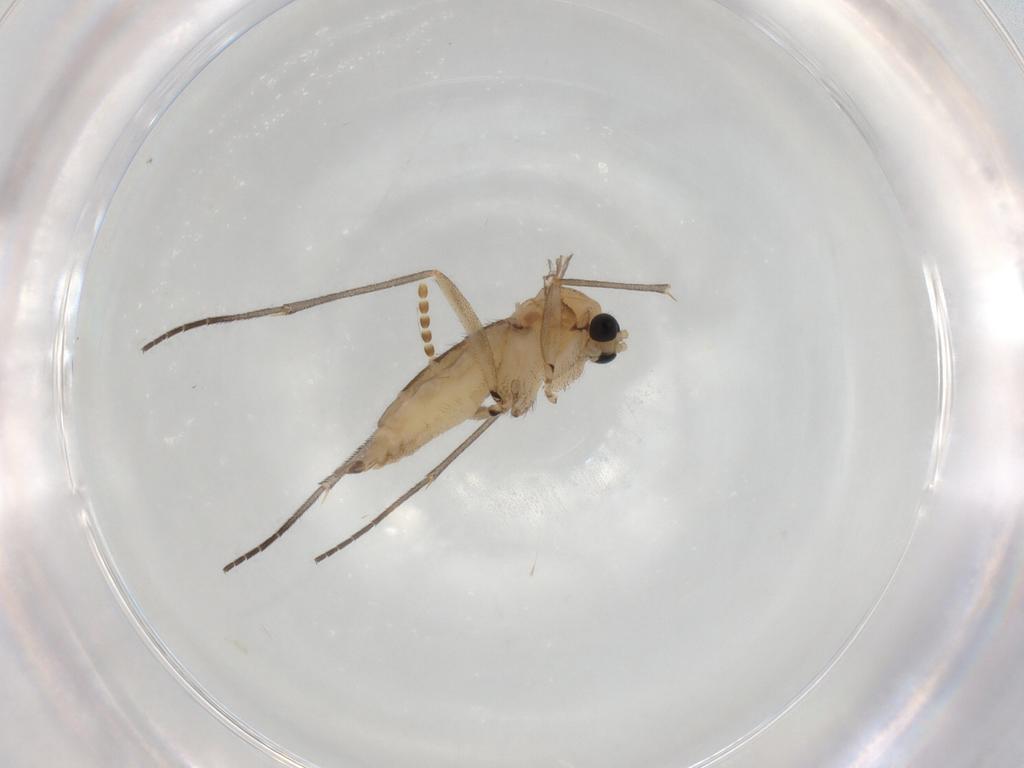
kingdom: Animalia
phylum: Arthropoda
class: Insecta
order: Diptera
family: Sciaridae
